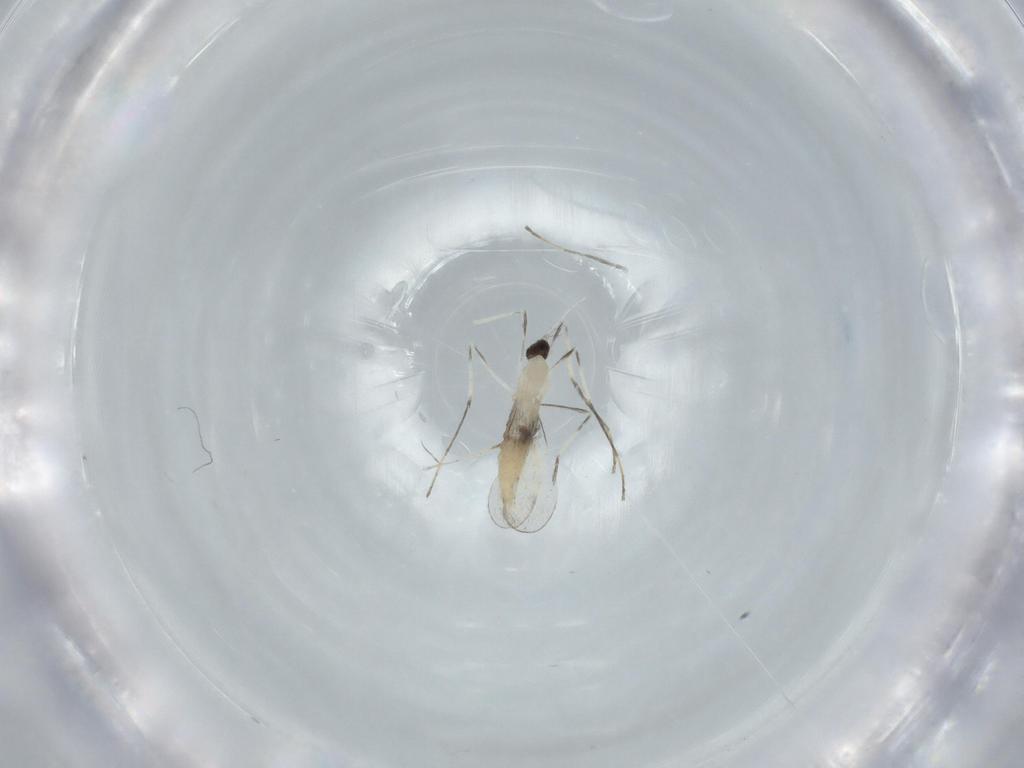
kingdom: Animalia
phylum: Arthropoda
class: Insecta
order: Diptera
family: Cecidomyiidae
